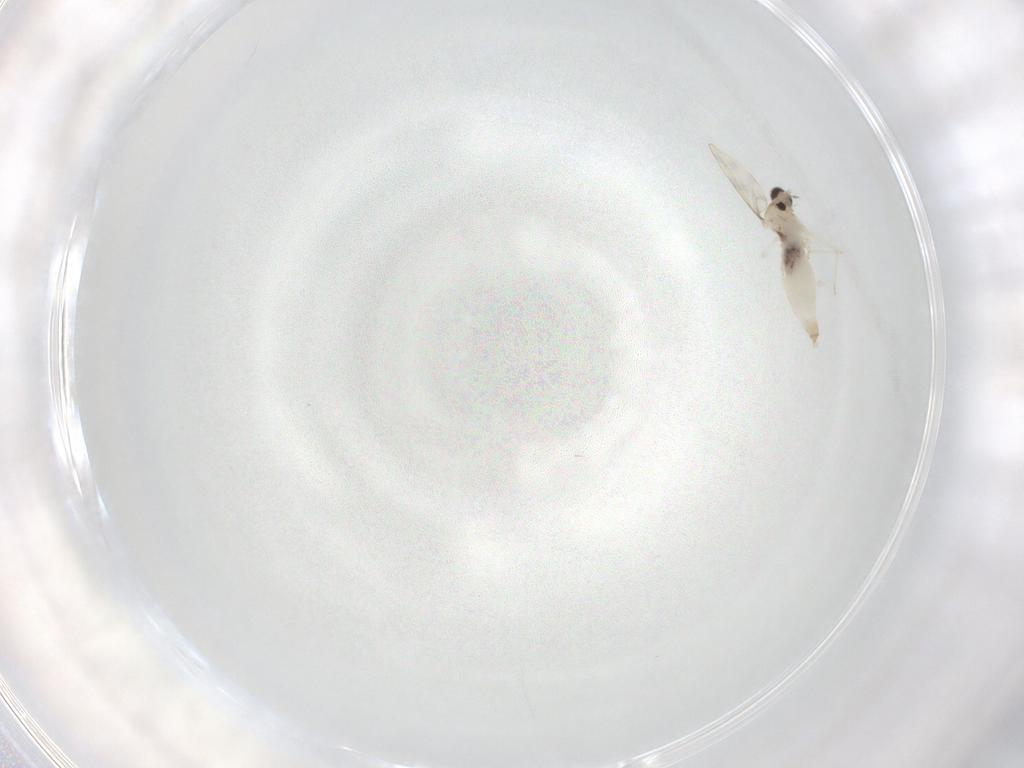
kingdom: Animalia
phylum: Arthropoda
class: Insecta
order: Diptera
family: Cecidomyiidae
